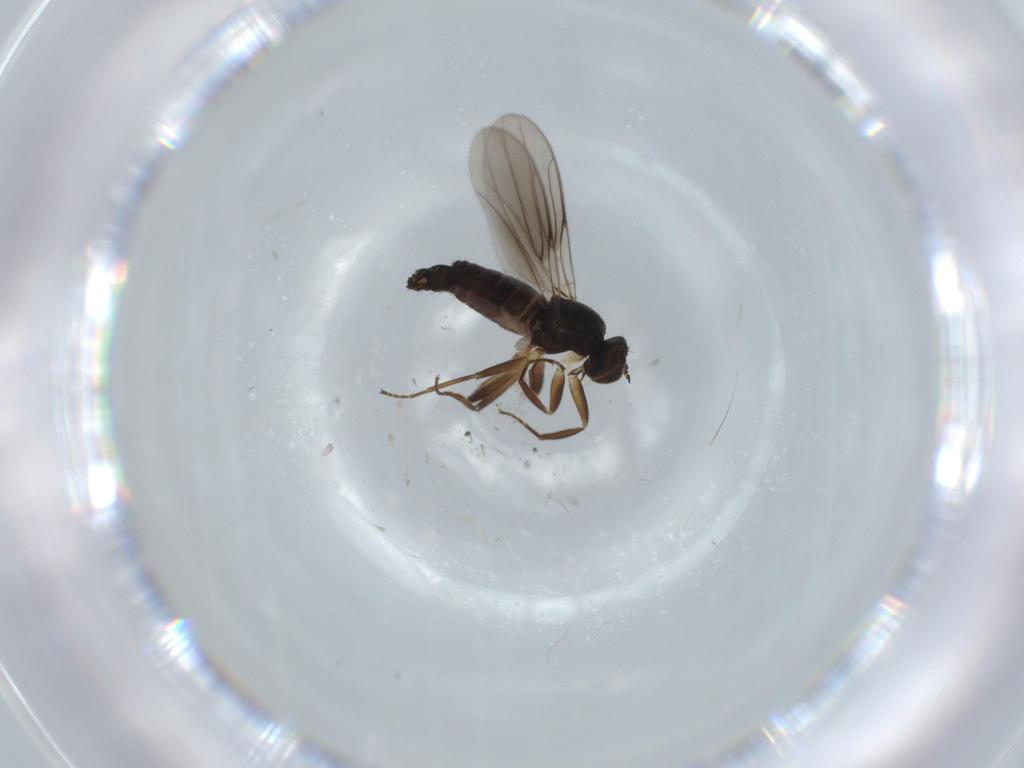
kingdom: Animalia
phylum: Arthropoda
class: Insecta
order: Diptera
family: Hybotidae
